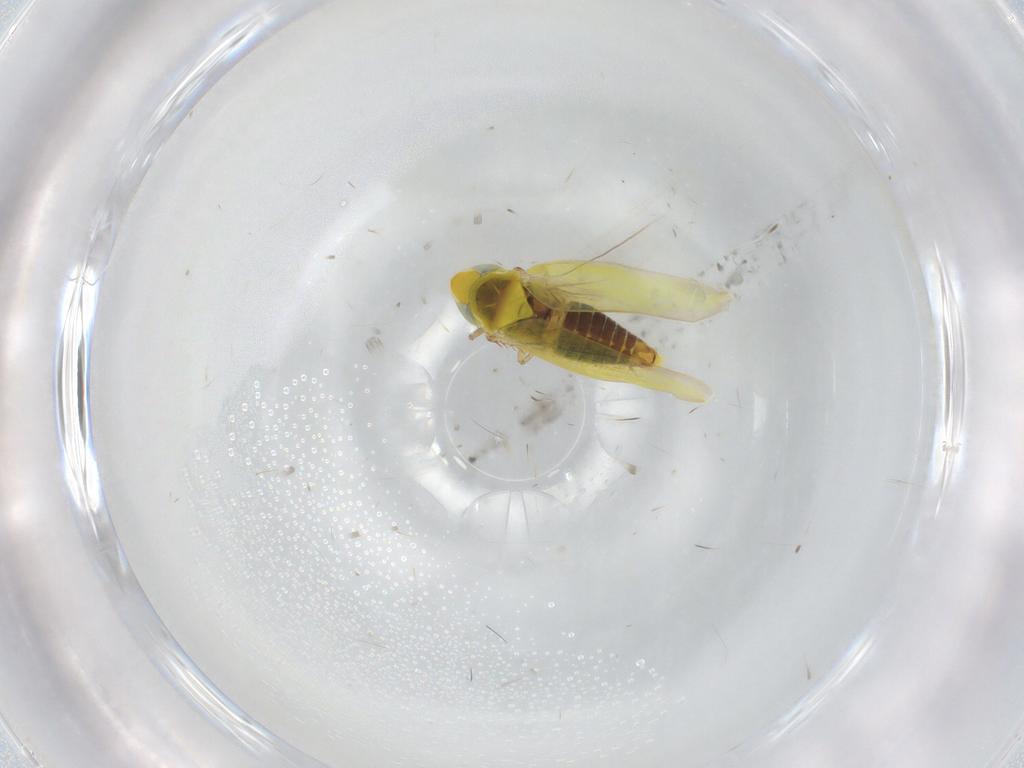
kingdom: Animalia
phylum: Arthropoda
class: Insecta
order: Hemiptera
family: Cicadellidae
